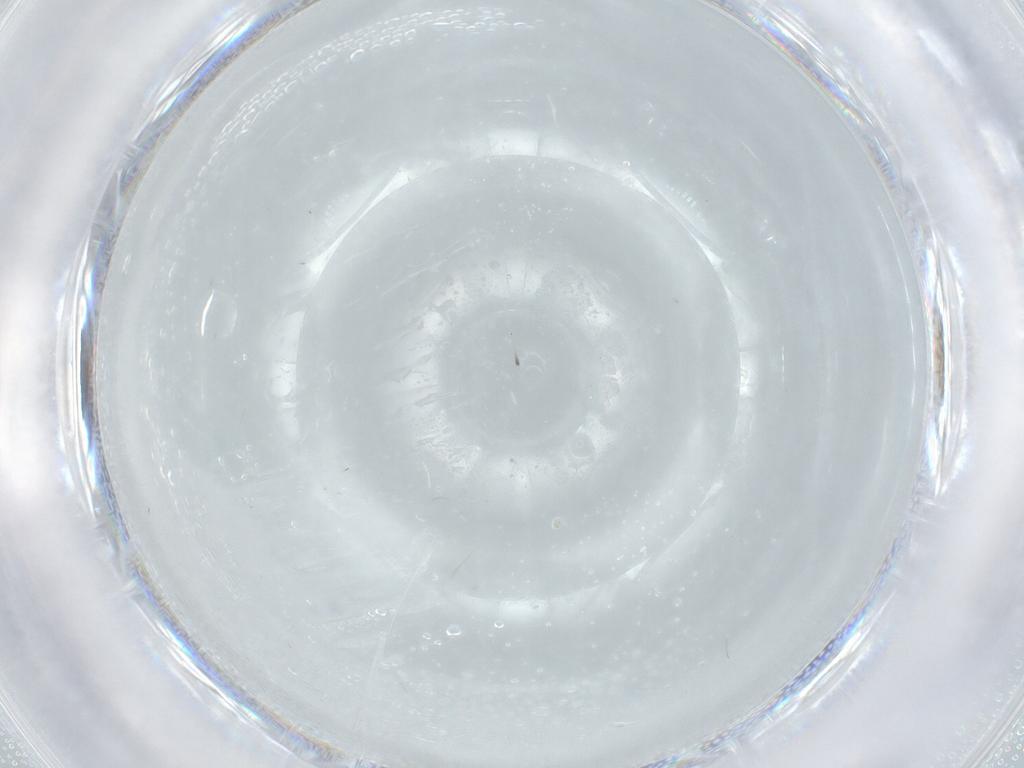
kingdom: Animalia
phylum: Arthropoda
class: Insecta
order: Diptera
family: Psychodidae
